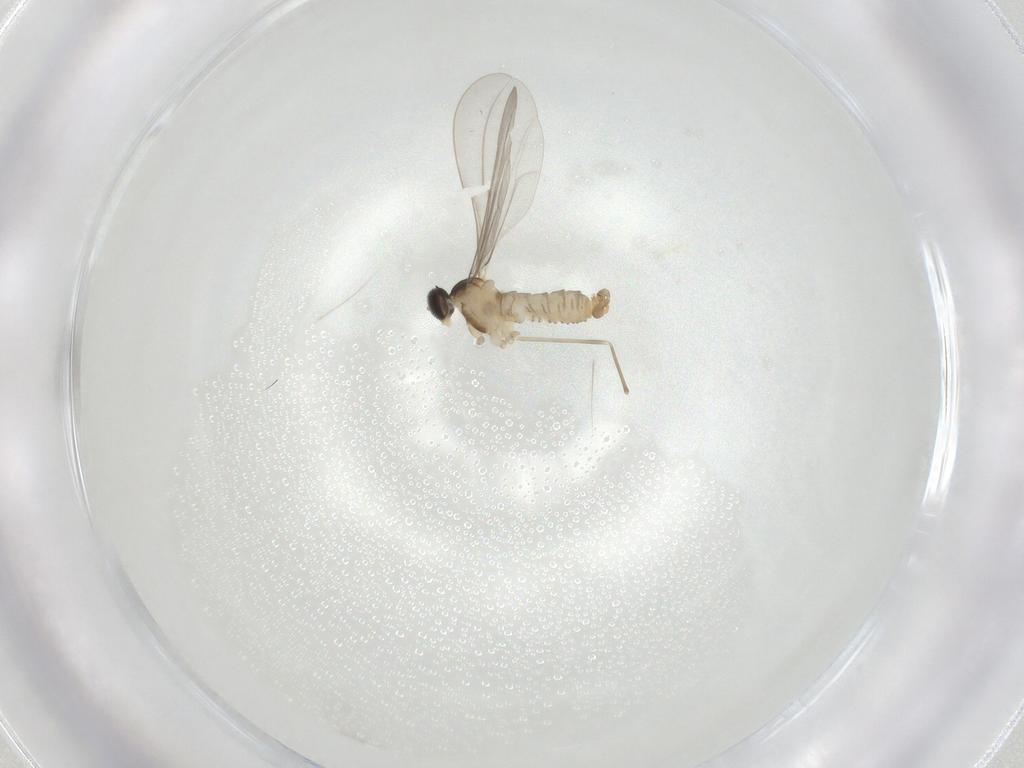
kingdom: Animalia
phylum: Arthropoda
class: Insecta
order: Diptera
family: Cecidomyiidae
